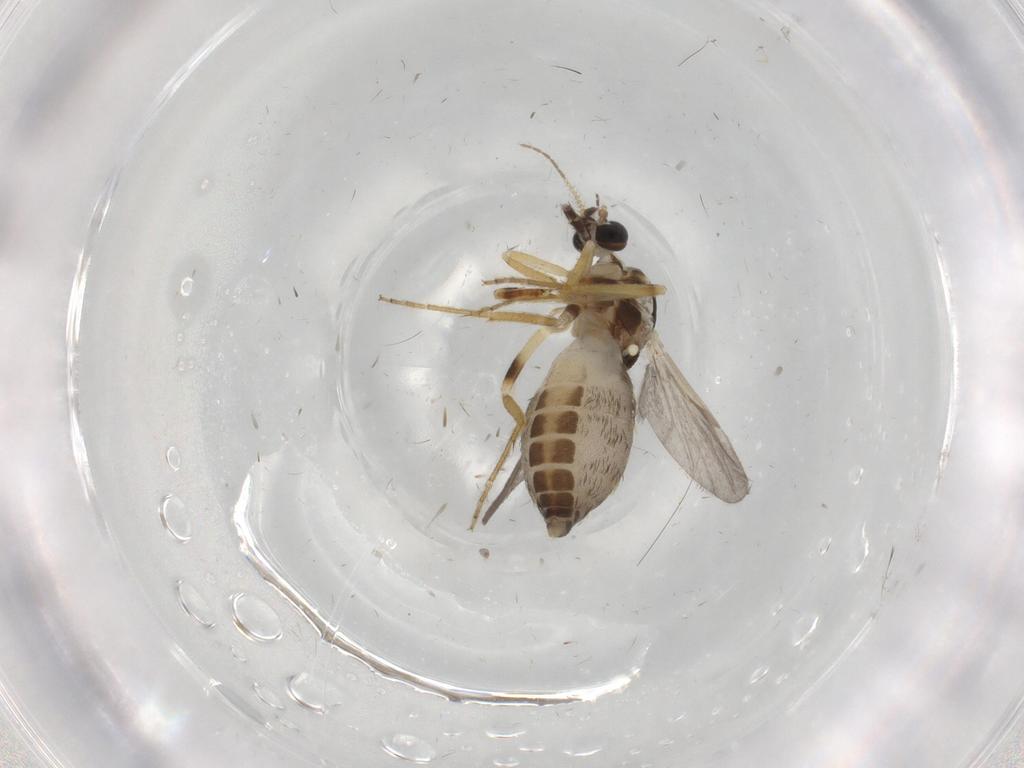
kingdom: Animalia
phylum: Arthropoda
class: Insecta
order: Diptera
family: Ceratopogonidae
